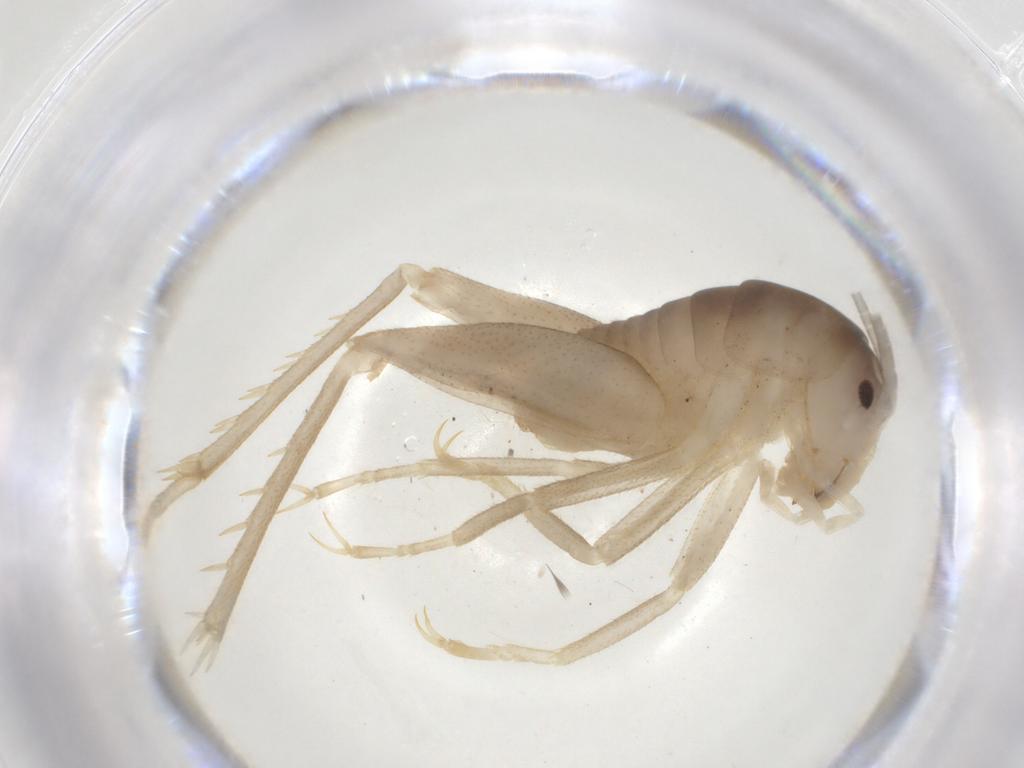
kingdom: Animalia
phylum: Arthropoda
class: Insecta
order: Orthoptera
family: Rhaphidophoridae
